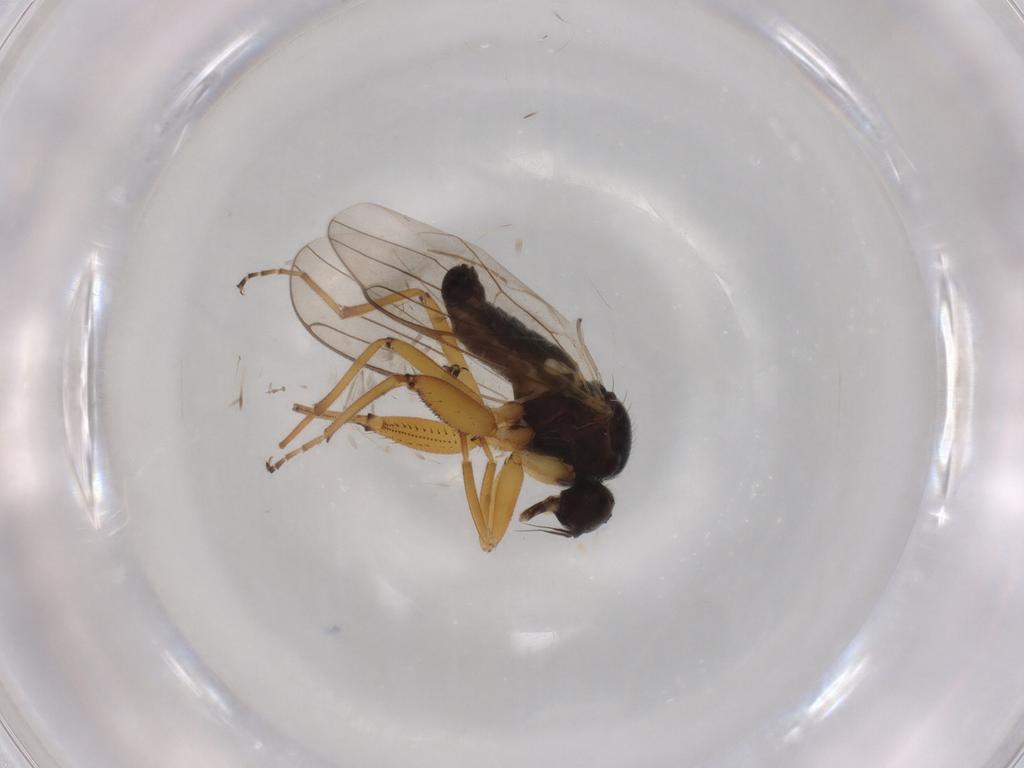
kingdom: Animalia
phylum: Arthropoda
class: Insecta
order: Diptera
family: Hybotidae
